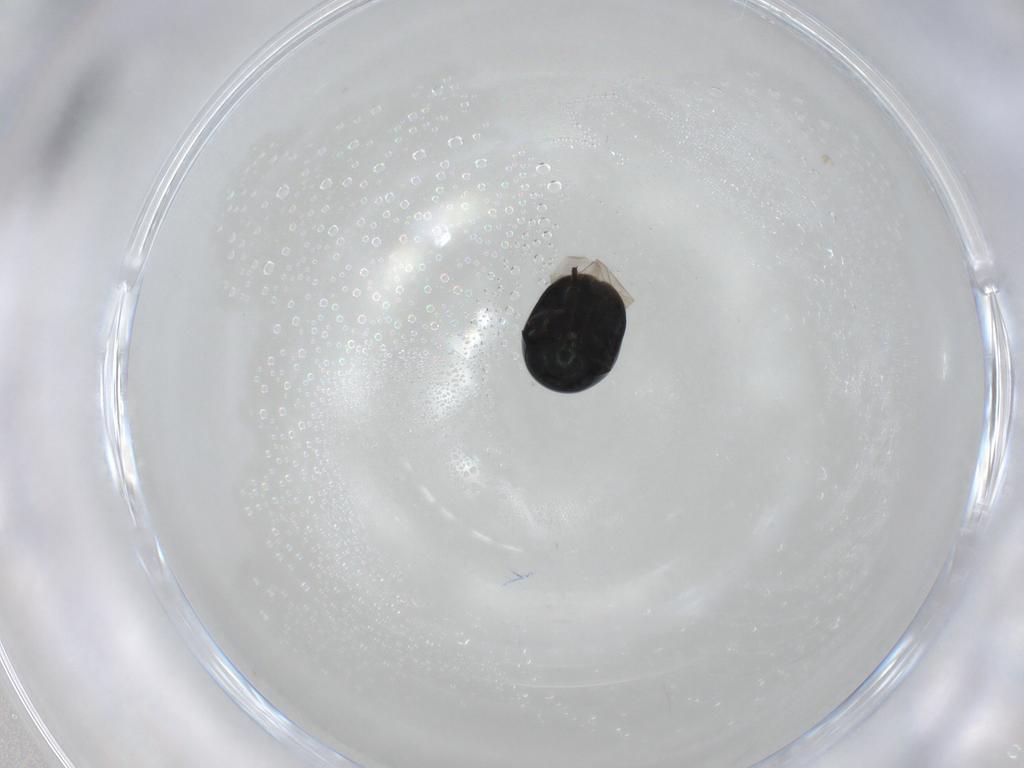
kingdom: Animalia
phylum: Arthropoda
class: Insecta
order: Coleoptera
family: Cybocephalidae
